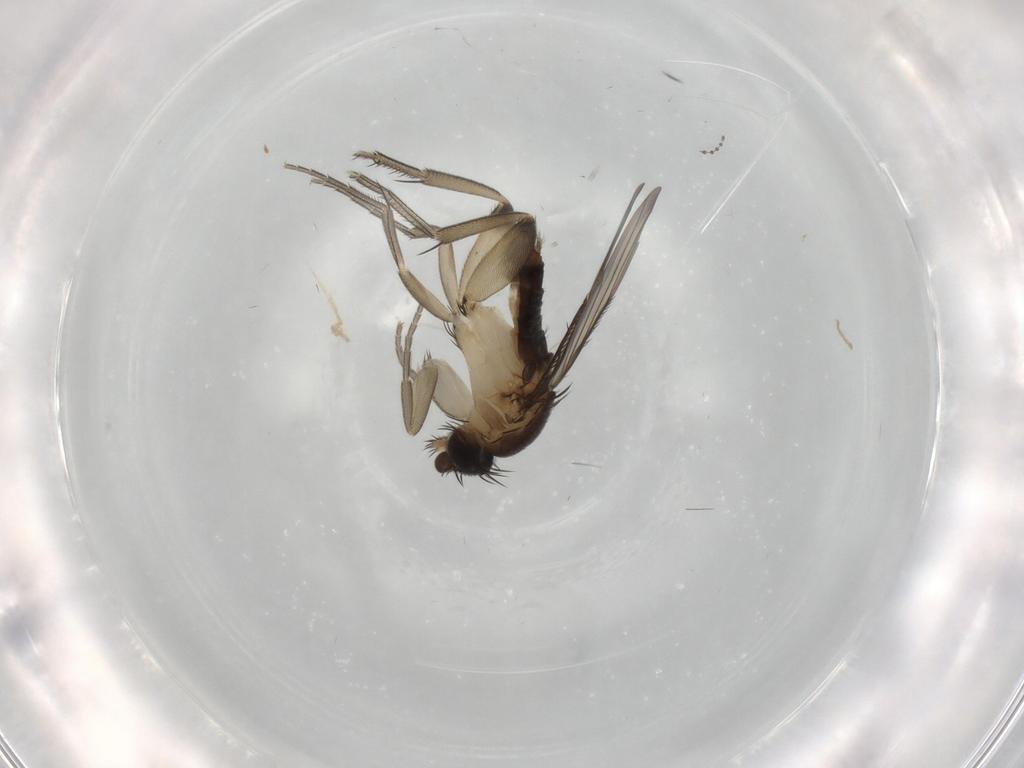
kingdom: Animalia
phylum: Arthropoda
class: Insecta
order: Diptera
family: Phoridae
